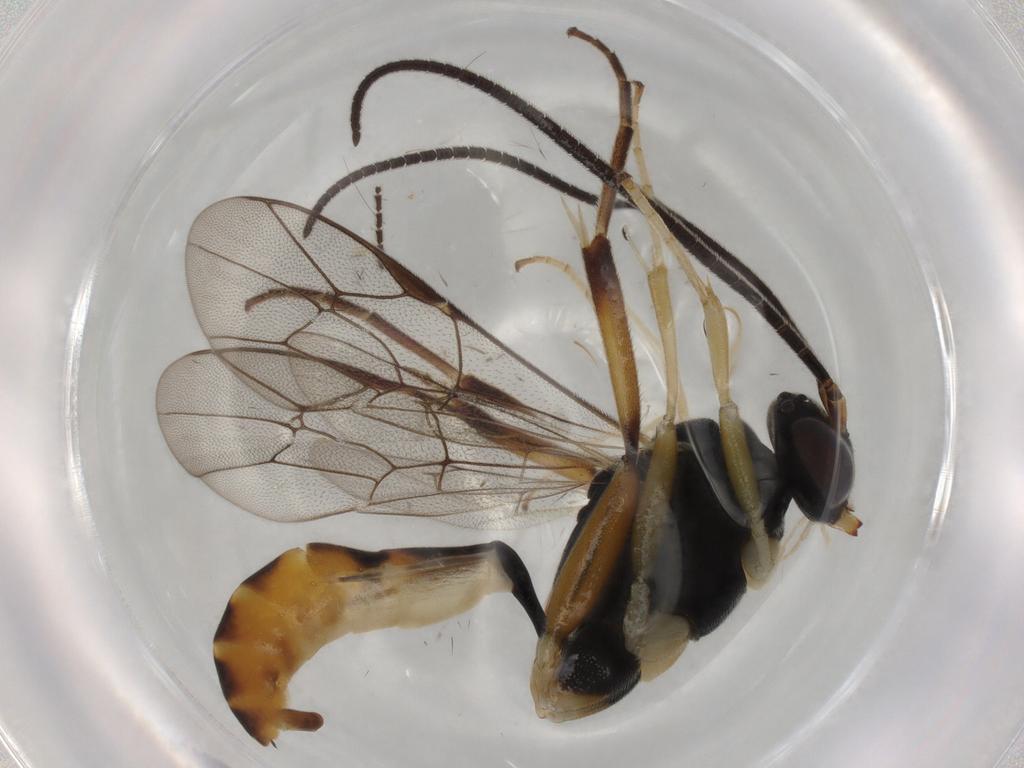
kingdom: Animalia
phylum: Arthropoda
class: Insecta
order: Hymenoptera
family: Ichneumonidae
